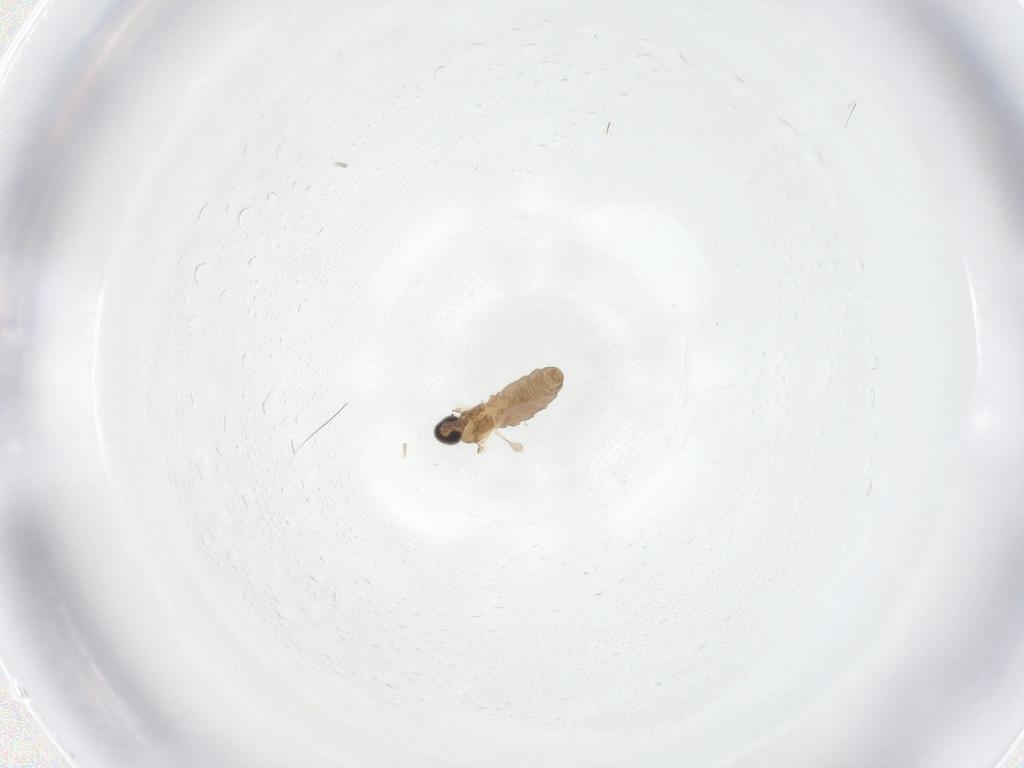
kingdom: Animalia
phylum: Arthropoda
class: Insecta
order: Diptera
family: Cecidomyiidae
